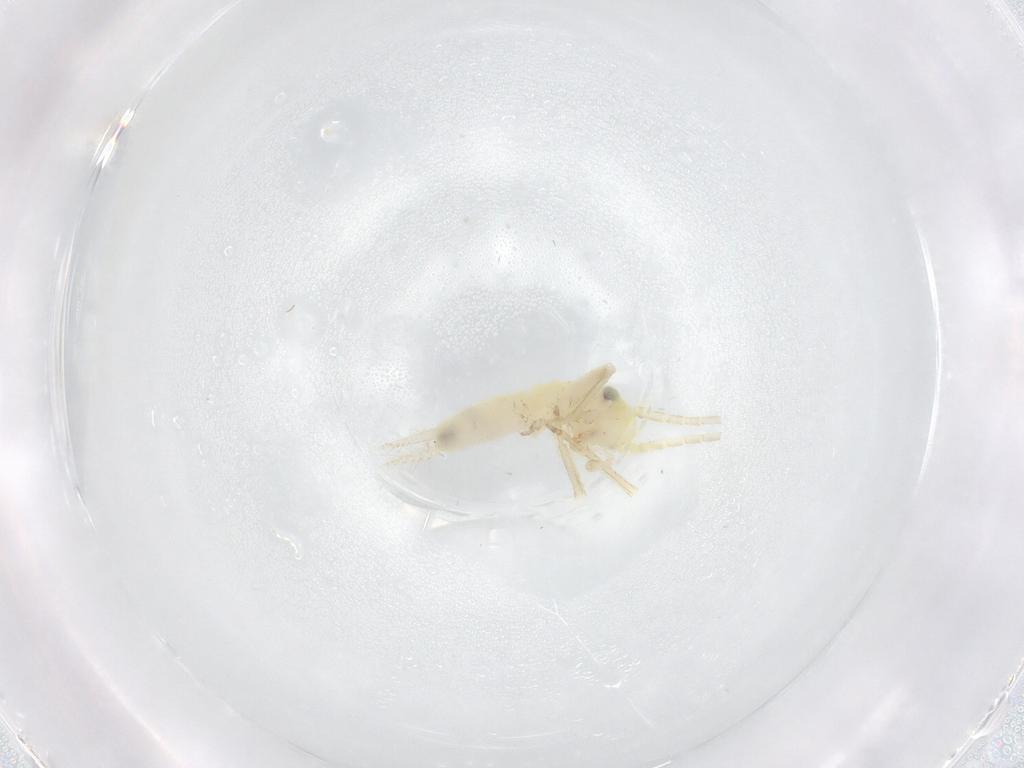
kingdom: Animalia
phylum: Arthropoda
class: Insecta
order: Orthoptera
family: Trigonidiidae
